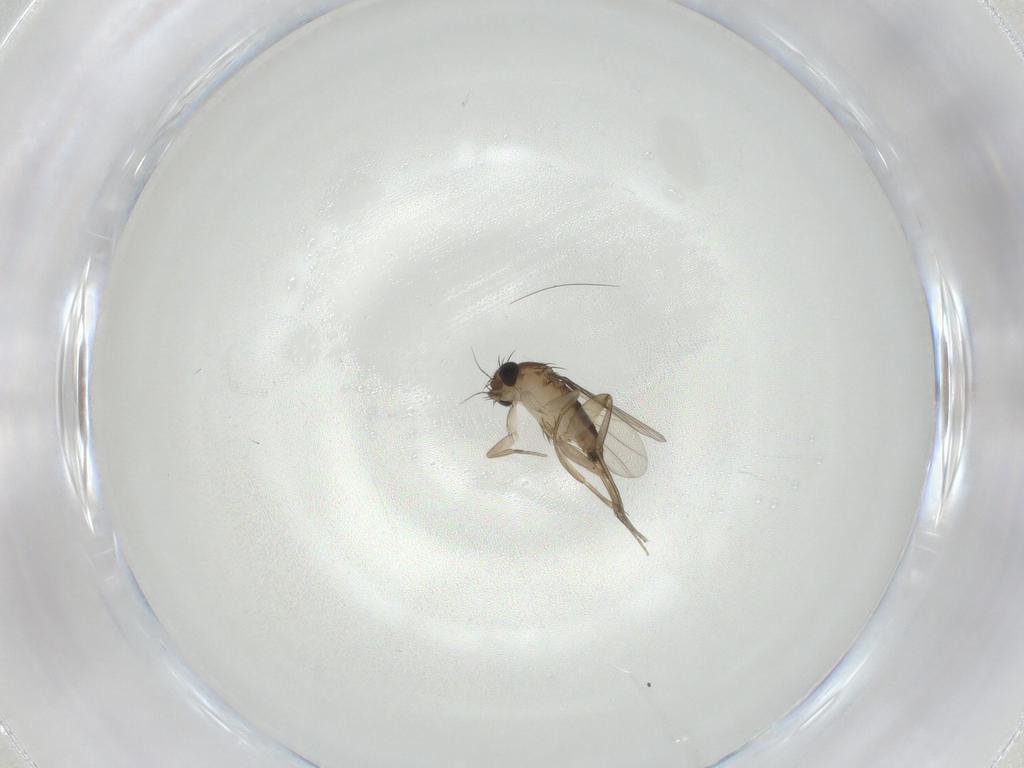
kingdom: Animalia
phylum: Arthropoda
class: Insecta
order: Diptera
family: Phoridae
